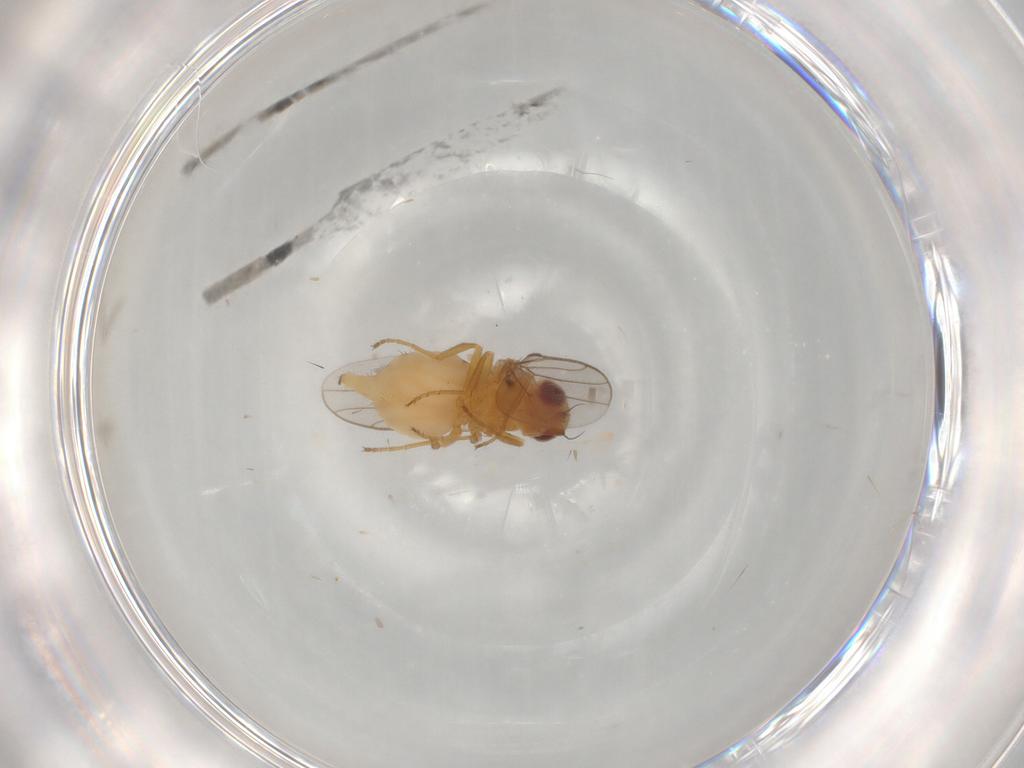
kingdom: Animalia
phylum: Arthropoda
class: Insecta
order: Diptera
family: Chloropidae
